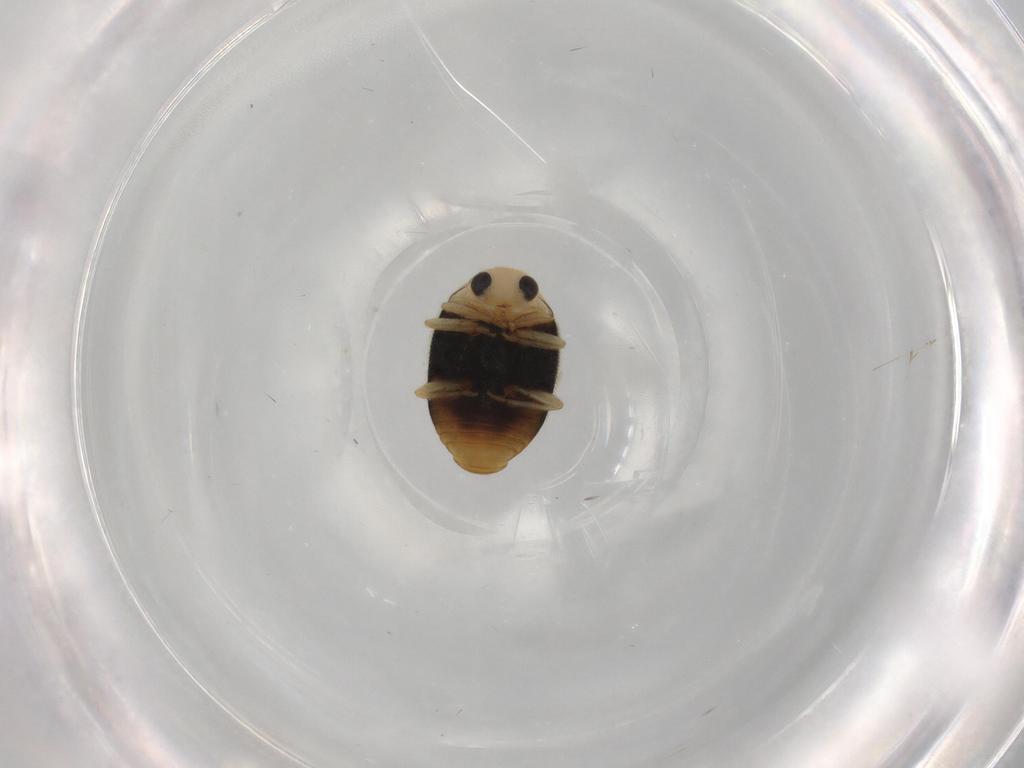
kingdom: Animalia
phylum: Arthropoda
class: Insecta
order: Coleoptera
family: Coccinellidae
